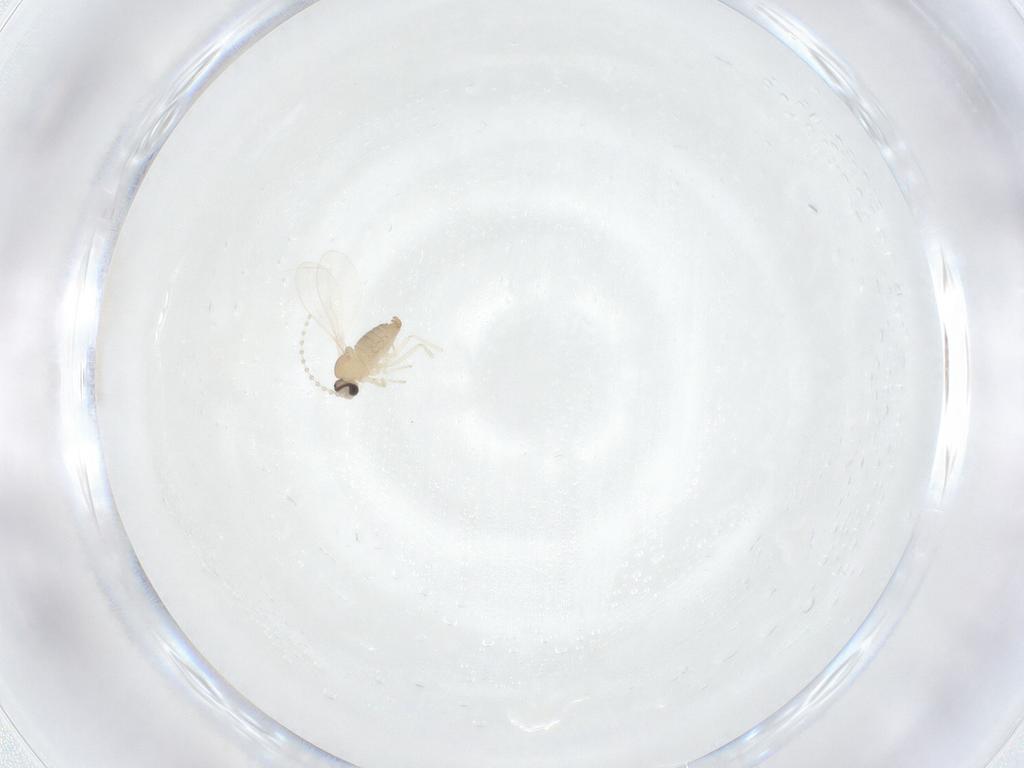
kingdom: Animalia
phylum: Arthropoda
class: Insecta
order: Diptera
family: Cecidomyiidae
